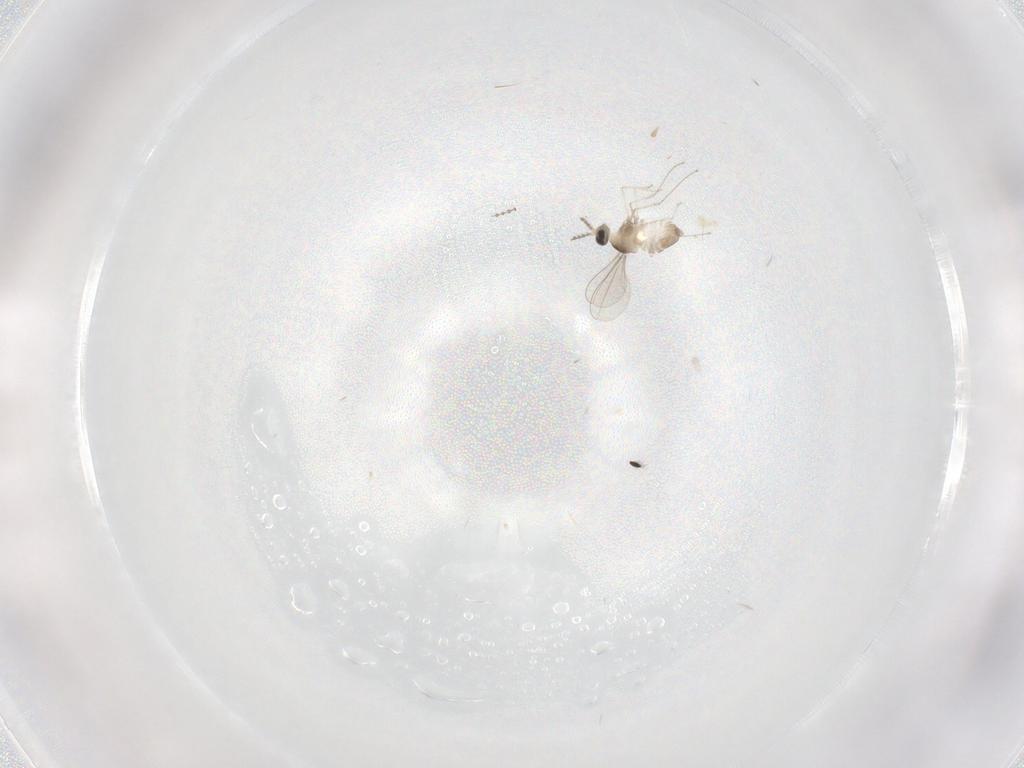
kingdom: Animalia
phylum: Arthropoda
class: Insecta
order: Diptera
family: Cecidomyiidae
